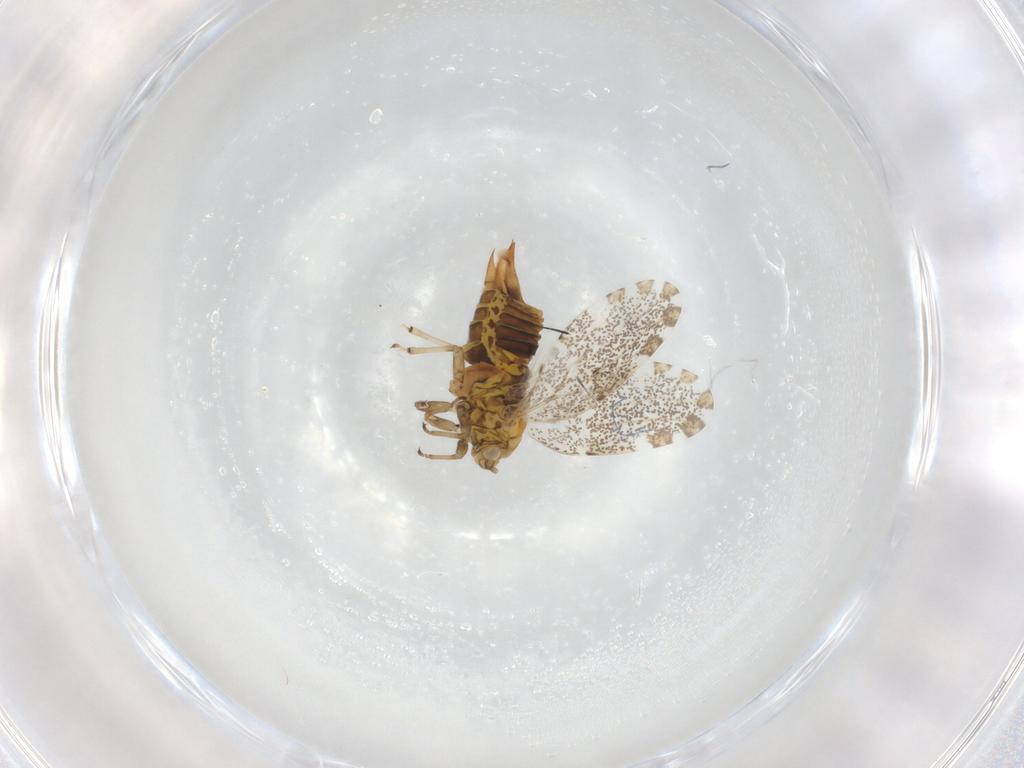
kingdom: Animalia
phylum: Arthropoda
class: Insecta
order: Hemiptera
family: Psylloidea_incertae_sedis
